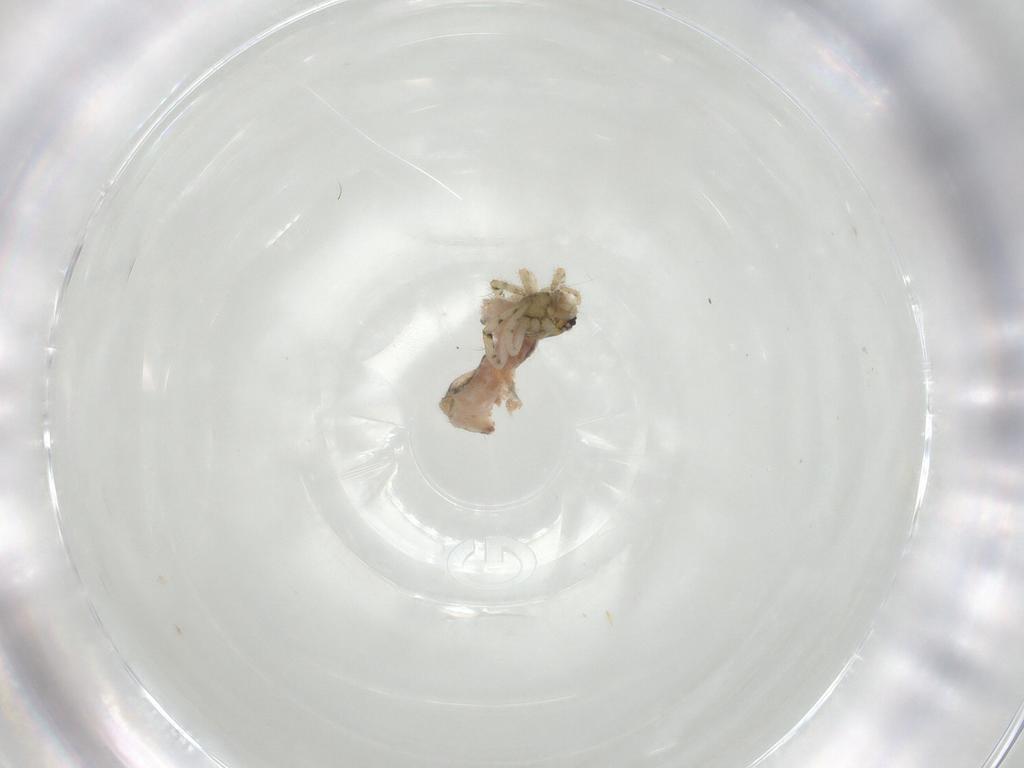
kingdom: Animalia
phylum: Arthropoda
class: Arachnida
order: Araneae
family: Theridiidae
